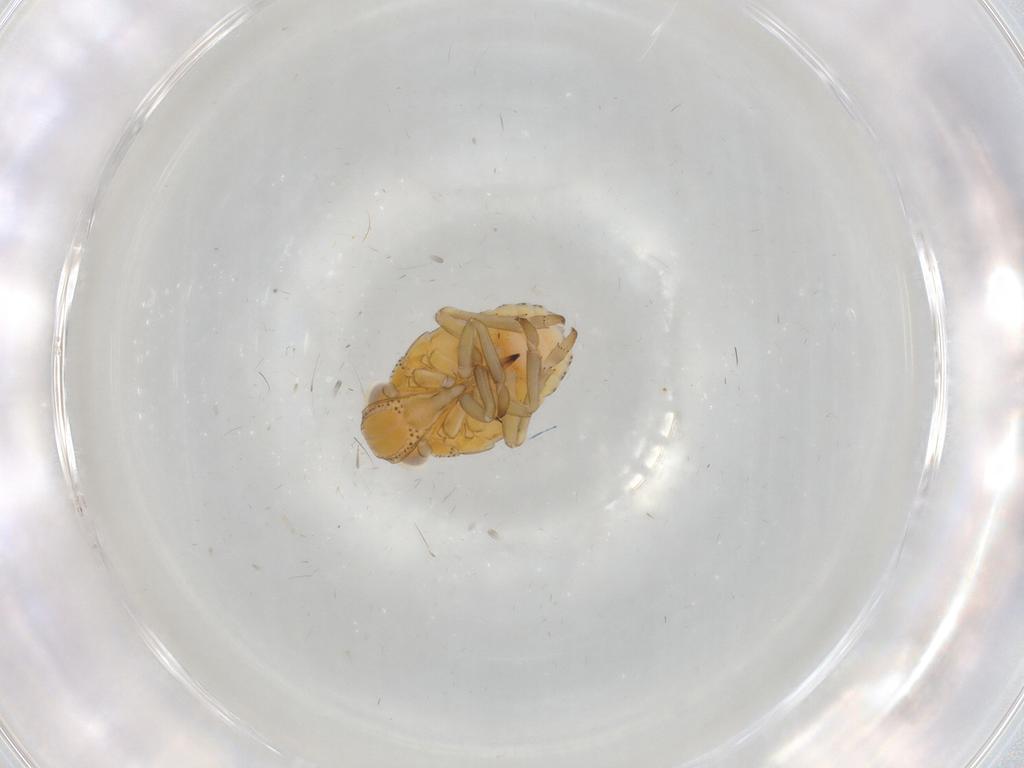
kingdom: Animalia
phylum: Arthropoda
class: Insecta
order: Hemiptera
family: Tropiduchidae
